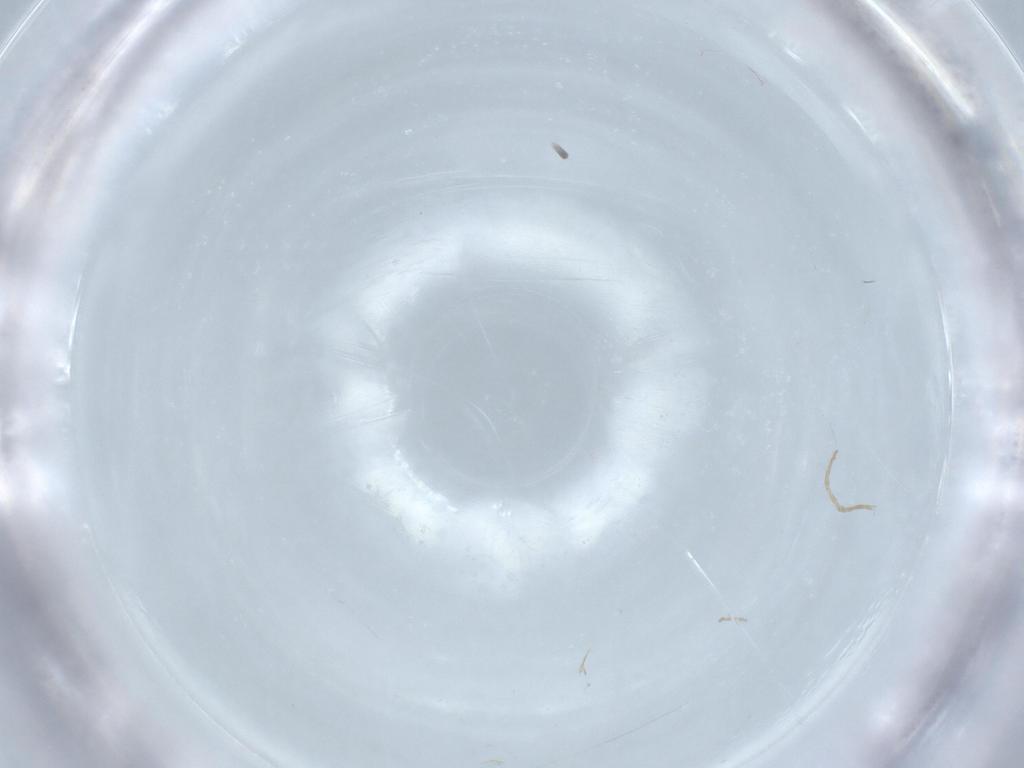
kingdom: Animalia
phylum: Arthropoda
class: Insecta
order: Diptera
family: Cecidomyiidae
